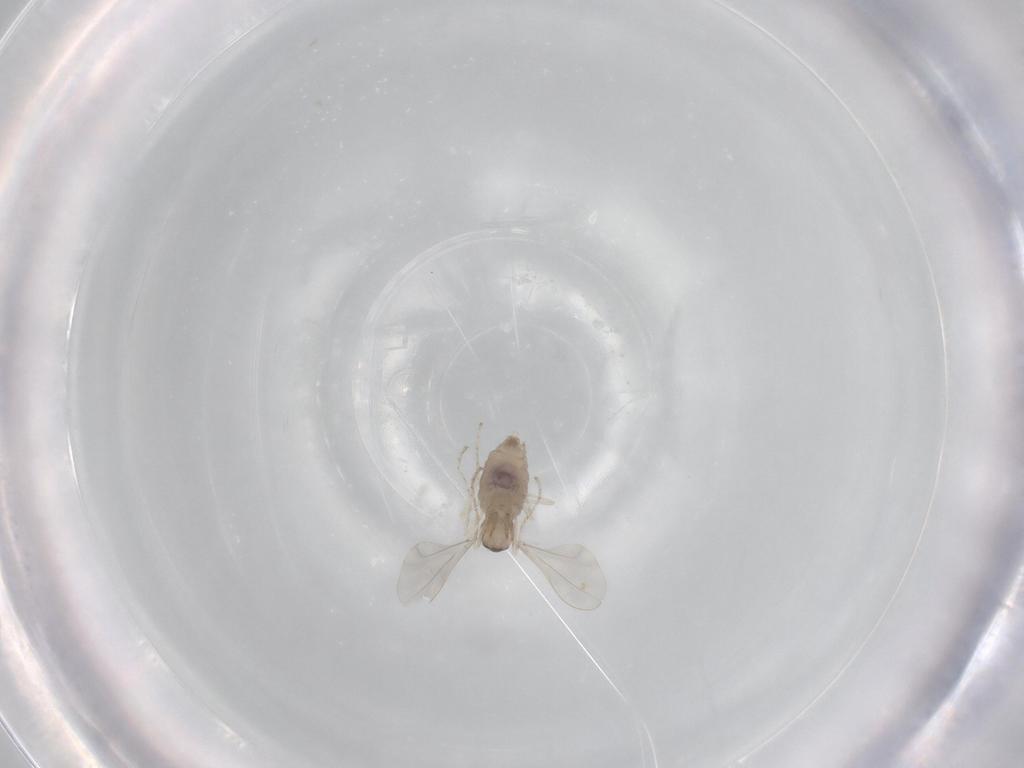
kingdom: Animalia
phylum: Arthropoda
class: Insecta
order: Diptera
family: Cecidomyiidae
